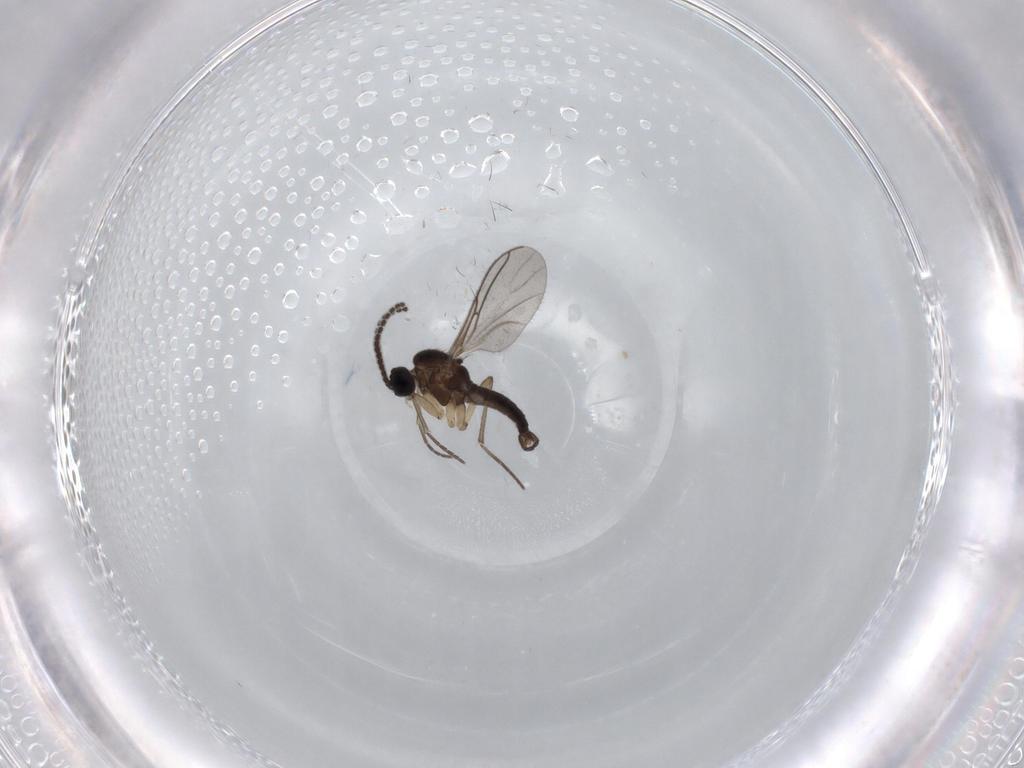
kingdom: Animalia
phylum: Arthropoda
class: Insecta
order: Diptera
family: Sciaridae
